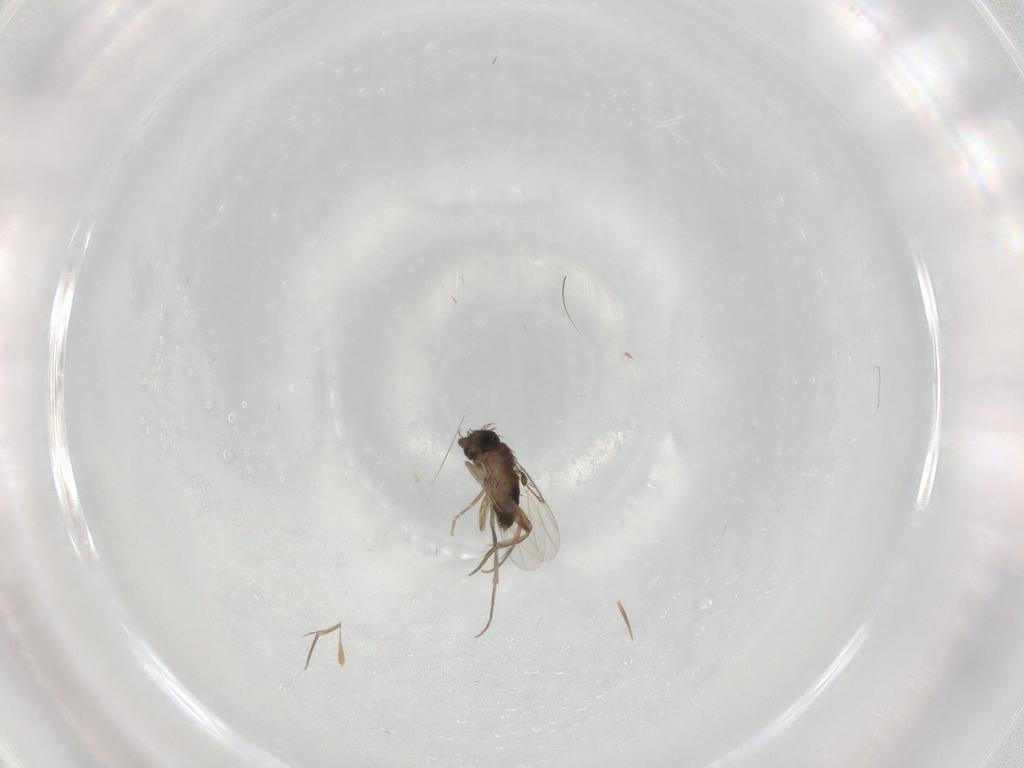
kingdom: Animalia
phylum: Arthropoda
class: Insecta
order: Diptera
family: Phoridae
